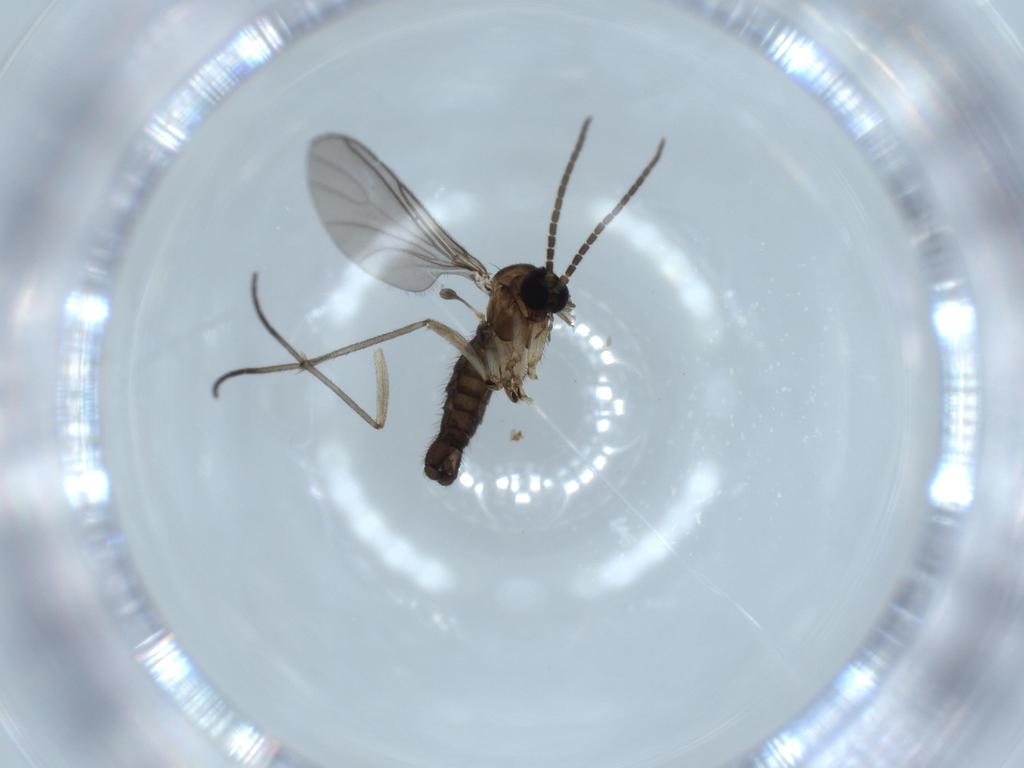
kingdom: Animalia
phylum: Arthropoda
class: Insecta
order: Diptera
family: Sciaridae
